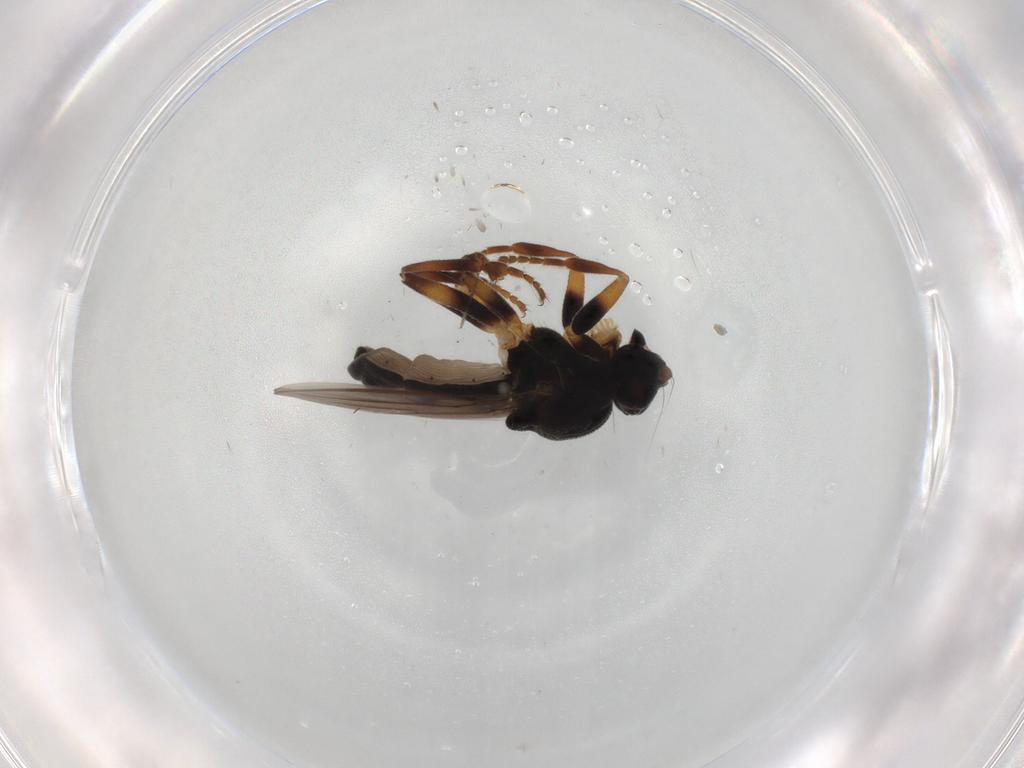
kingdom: Animalia
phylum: Arthropoda
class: Insecta
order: Diptera
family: Sphaeroceridae
